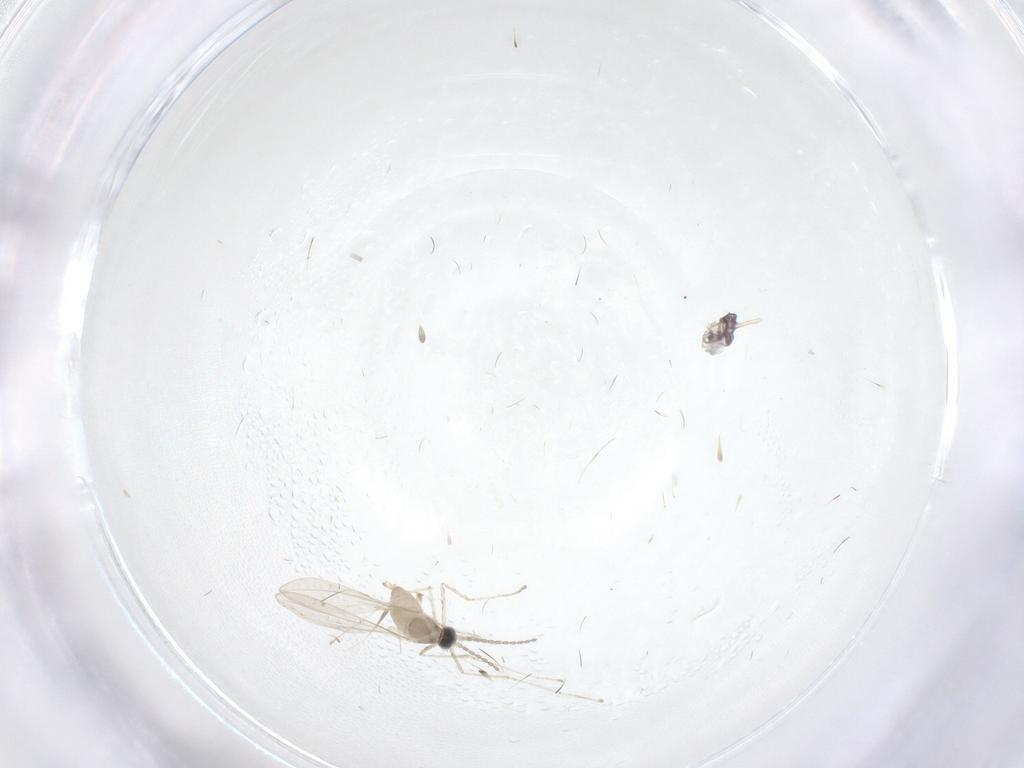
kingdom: Animalia
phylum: Arthropoda
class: Insecta
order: Diptera
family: Cecidomyiidae
